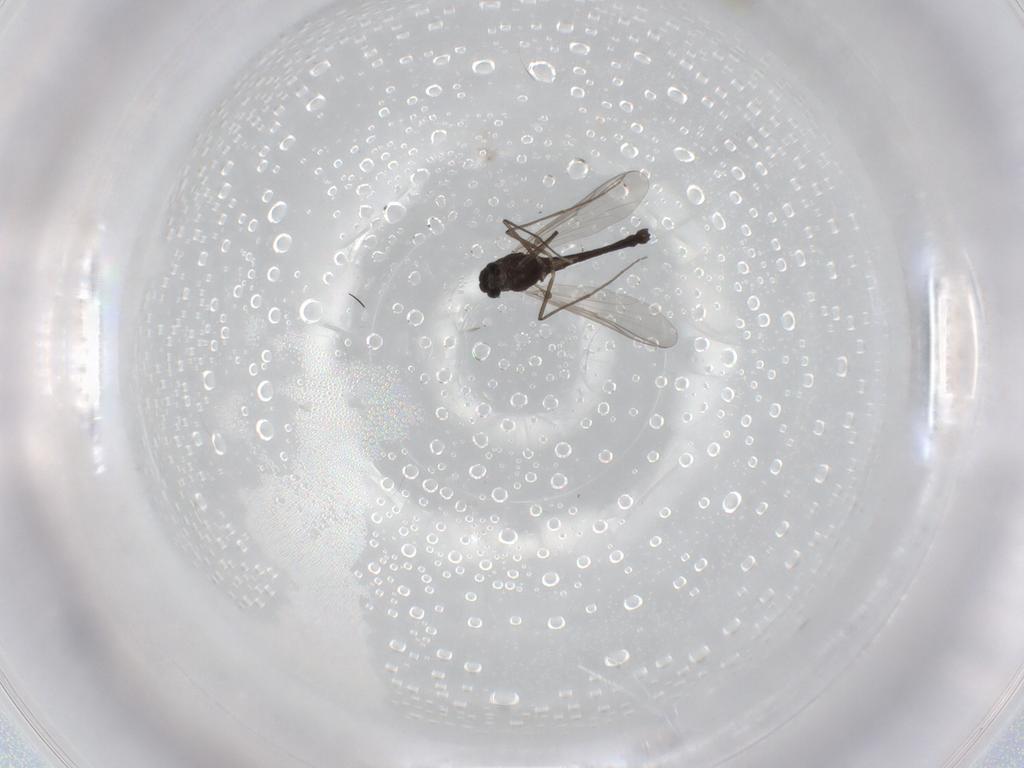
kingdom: Animalia
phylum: Arthropoda
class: Insecta
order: Diptera
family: Chironomidae
